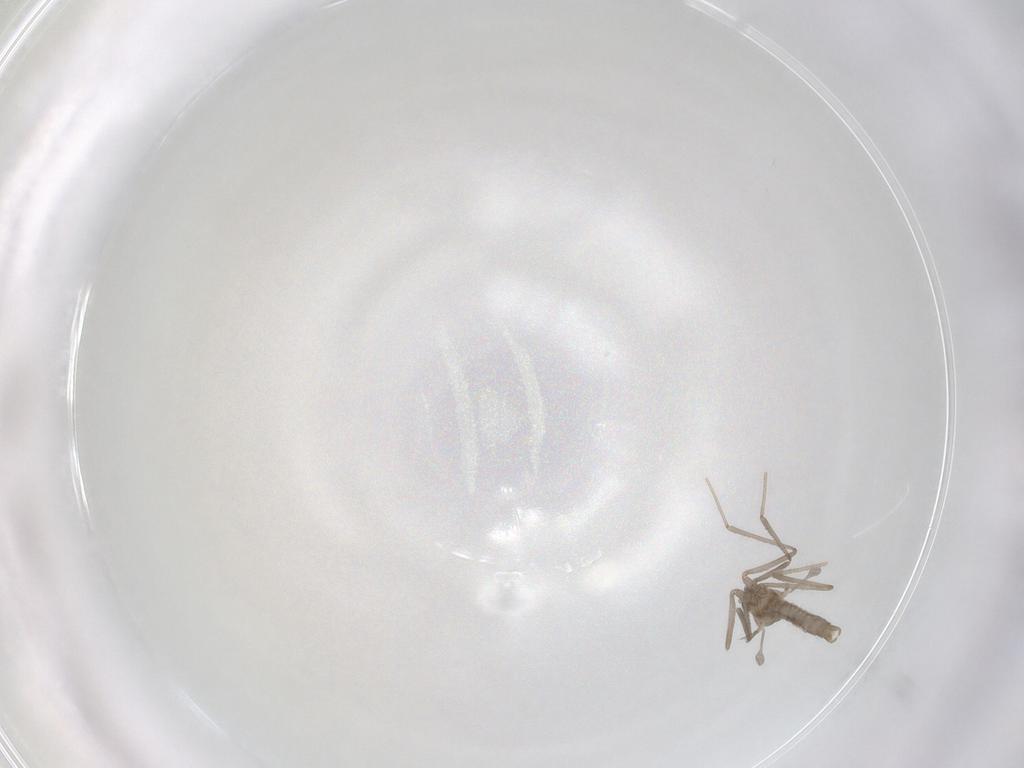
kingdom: Animalia
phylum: Arthropoda
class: Insecta
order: Diptera
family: Cecidomyiidae
